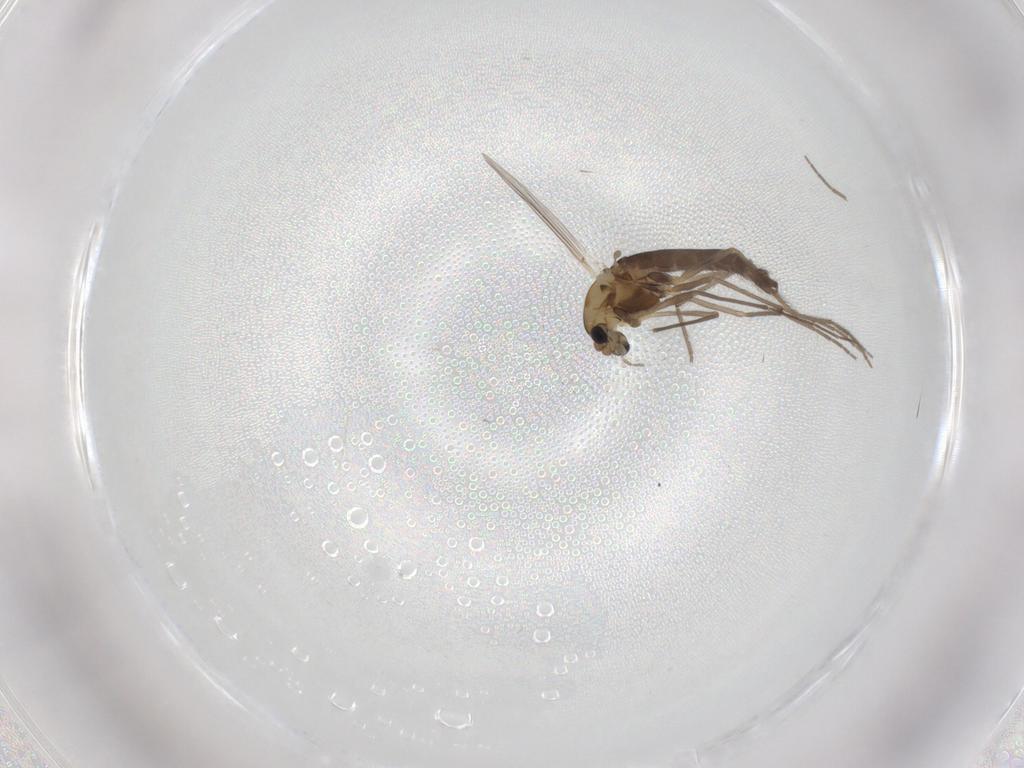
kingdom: Animalia
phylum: Arthropoda
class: Insecta
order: Diptera
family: Chironomidae
